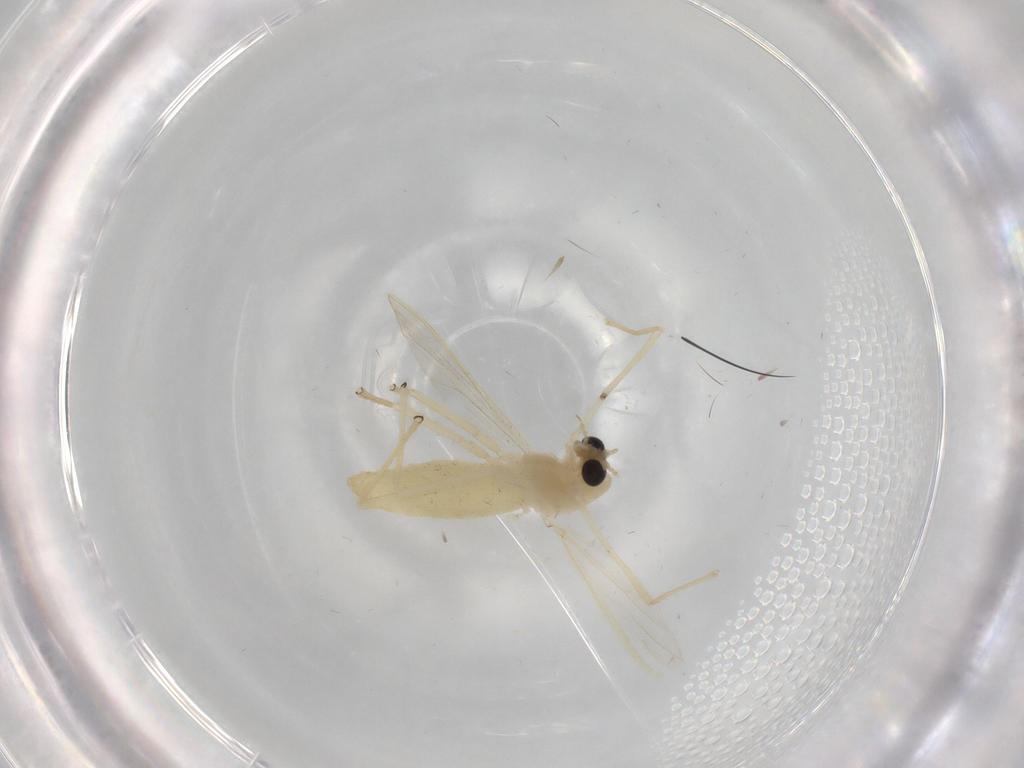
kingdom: Animalia
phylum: Arthropoda
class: Insecta
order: Diptera
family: Chironomidae
